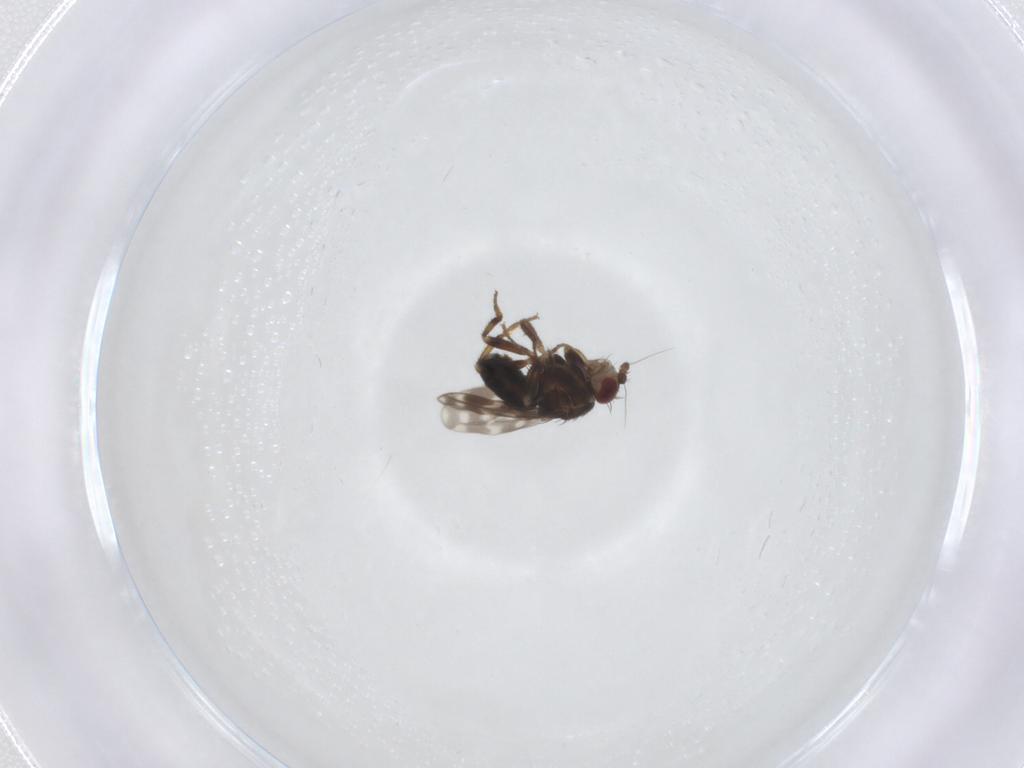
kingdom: Animalia
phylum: Arthropoda
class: Insecta
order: Diptera
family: Sphaeroceridae
